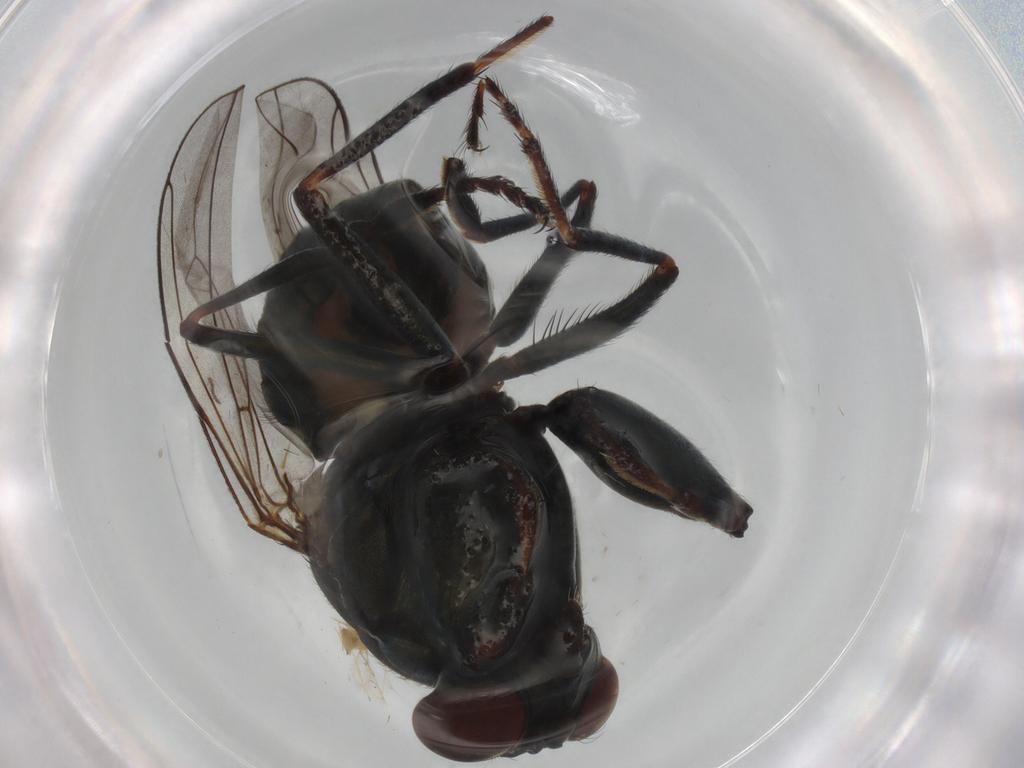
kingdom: Animalia
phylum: Arthropoda
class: Insecta
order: Diptera
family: Ephydridae
